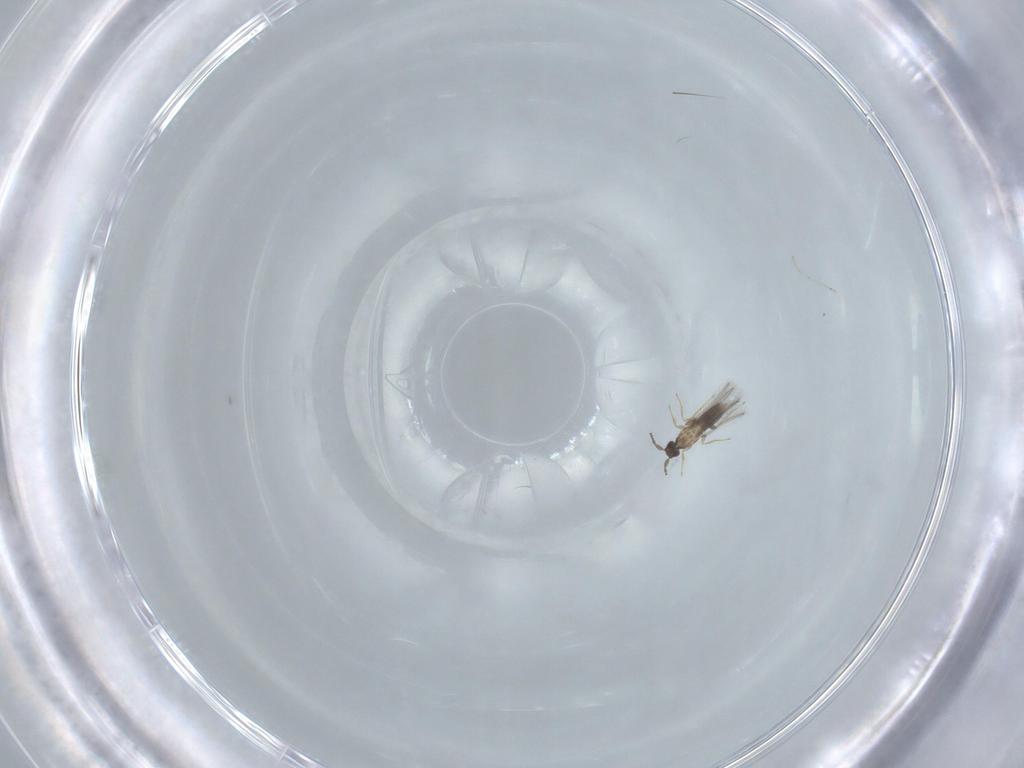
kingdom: Animalia
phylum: Arthropoda
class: Insecta
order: Diptera
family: Cecidomyiidae
